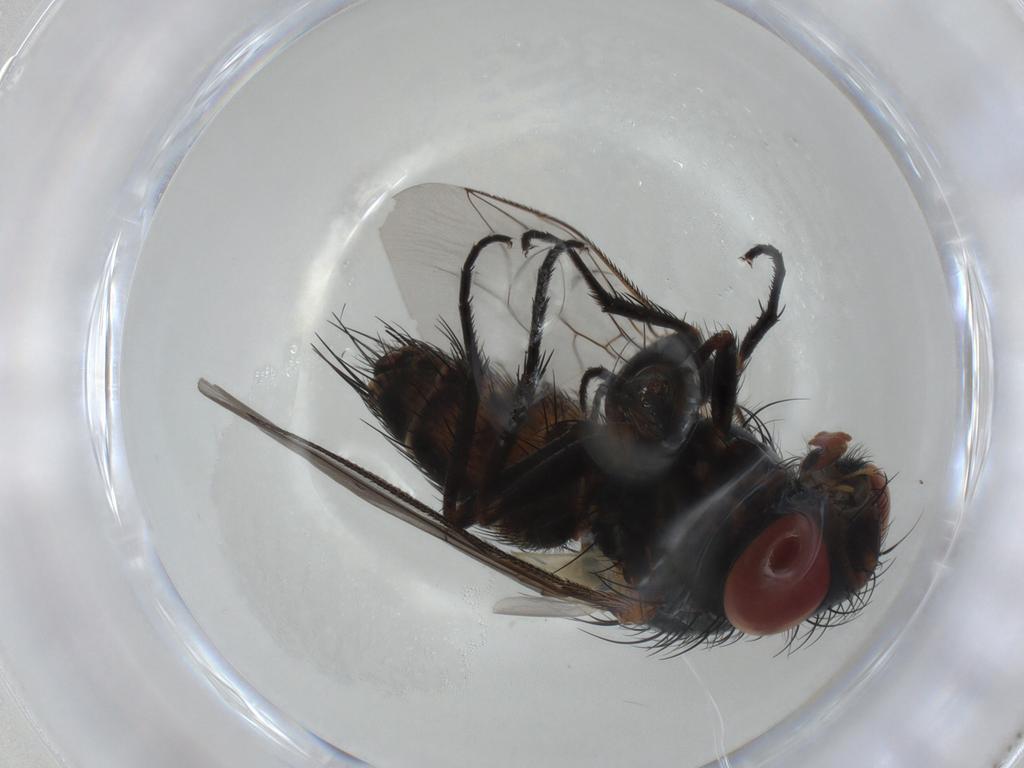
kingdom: Animalia
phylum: Arthropoda
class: Insecta
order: Diptera
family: Sarcophagidae
